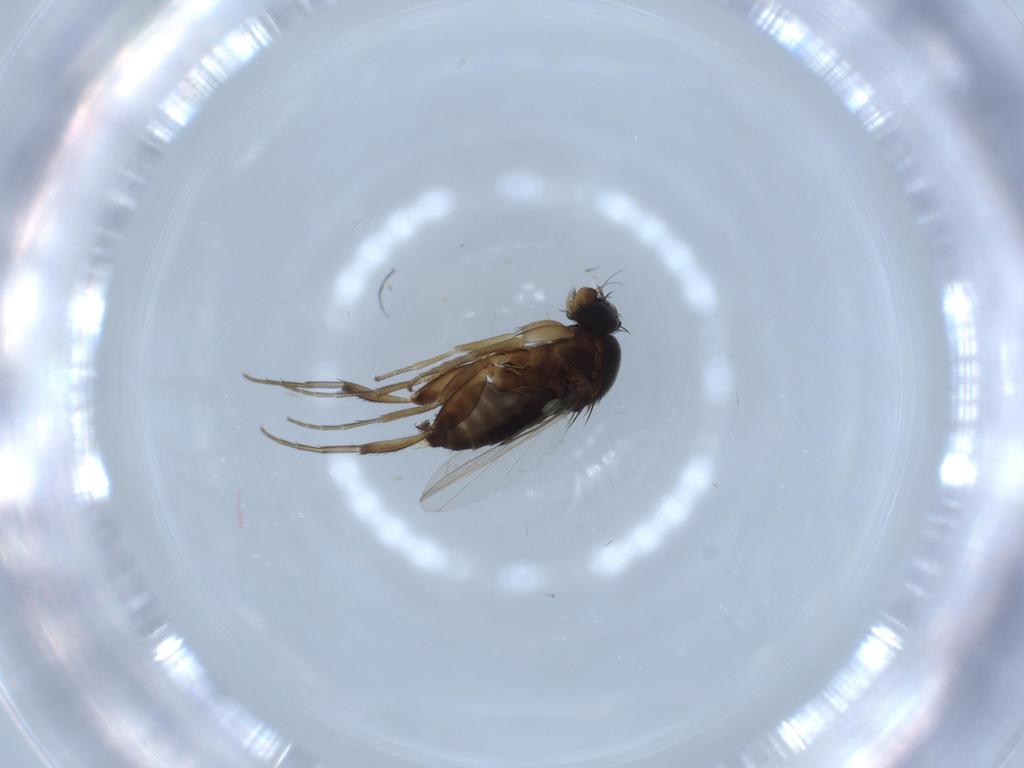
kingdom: Animalia
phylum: Arthropoda
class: Insecta
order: Diptera
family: Phoridae
